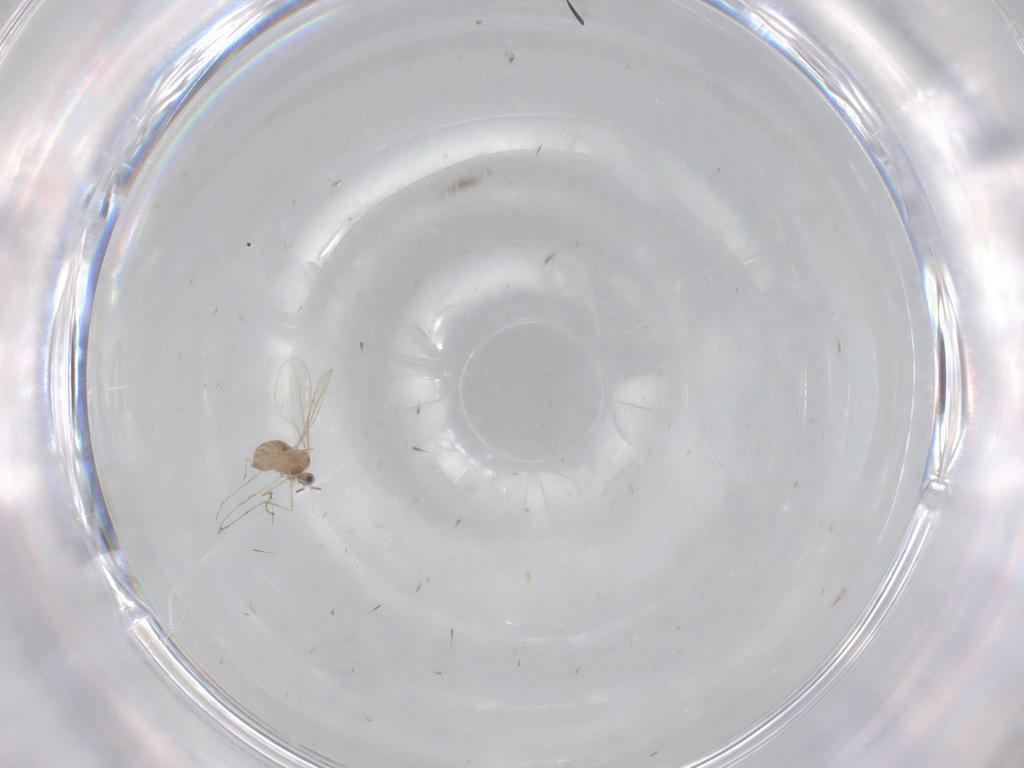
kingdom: Animalia
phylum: Arthropoda
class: Insecta
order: Diptera
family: Cecidomyiidae
